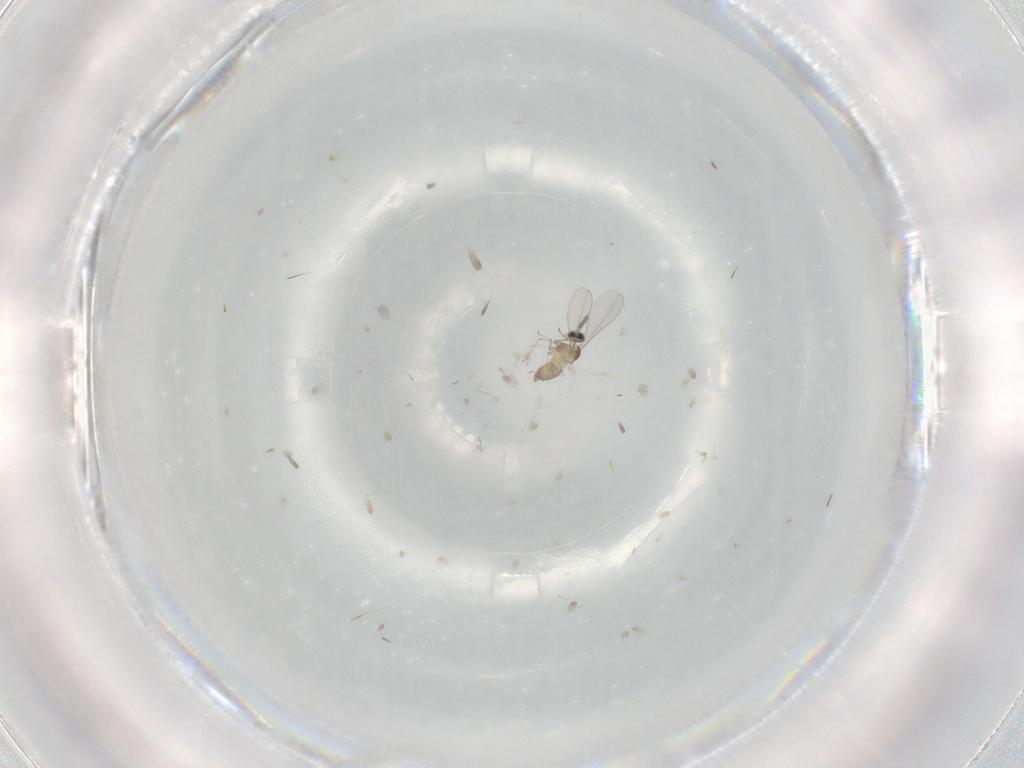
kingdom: Animalia
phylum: Arthropoda
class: Insecta
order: Diptera
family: Cecidomyiidae
